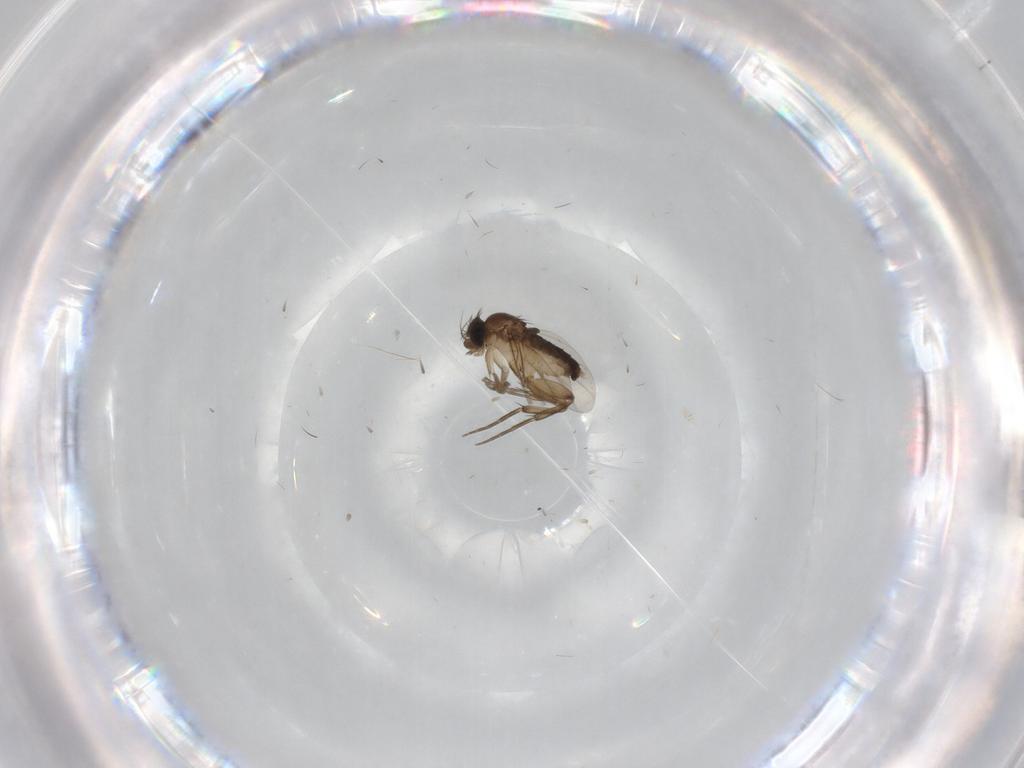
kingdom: Animalia
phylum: Arthropoda
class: Insecta
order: Diptera
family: Phoridae
